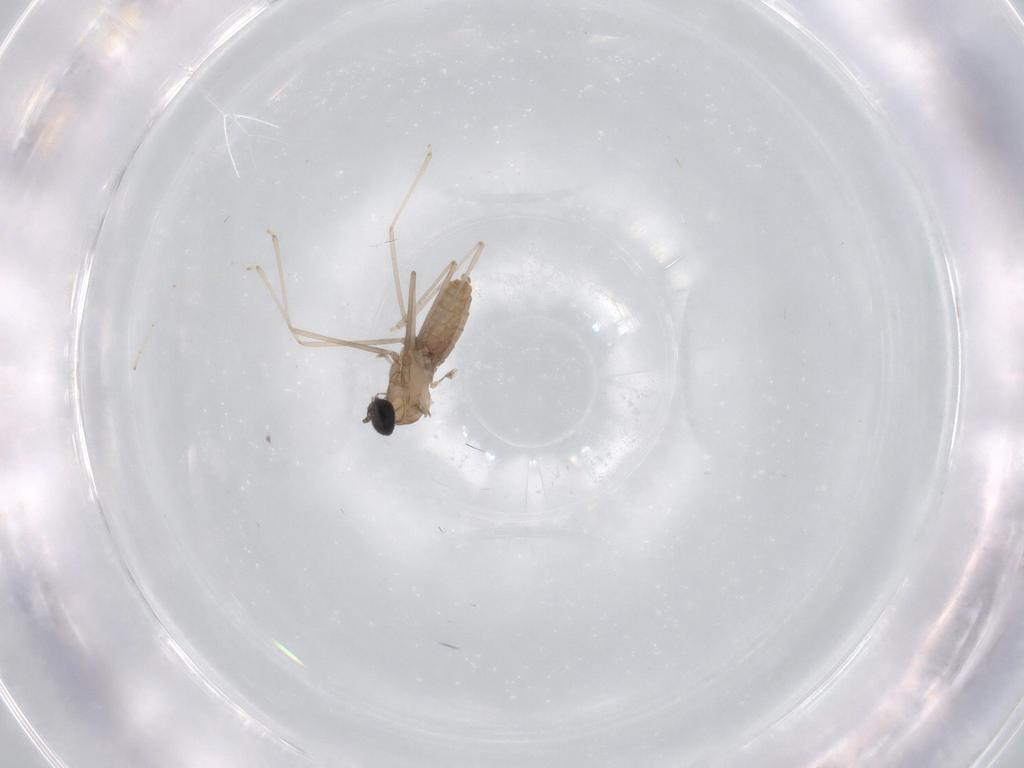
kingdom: Animalia
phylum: Arthropoda
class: Insecta
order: Diptera
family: Cecidomyiidae
